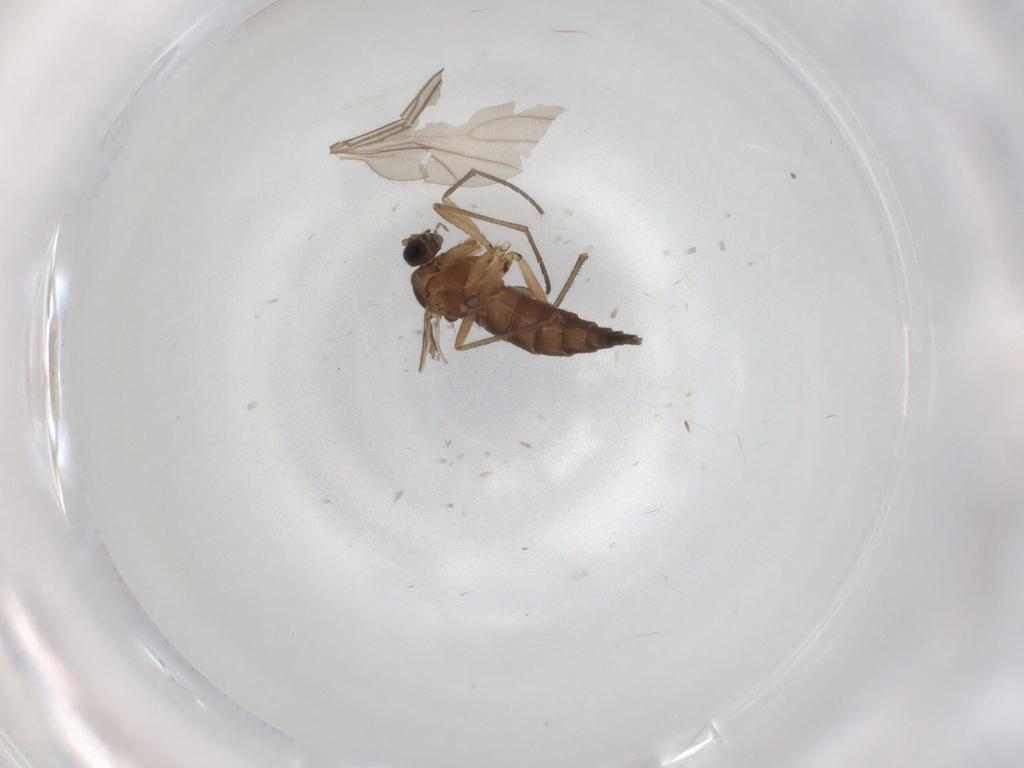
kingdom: Animalia
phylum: Arthropoda
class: Insecta
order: Diptera
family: Sciaridae
